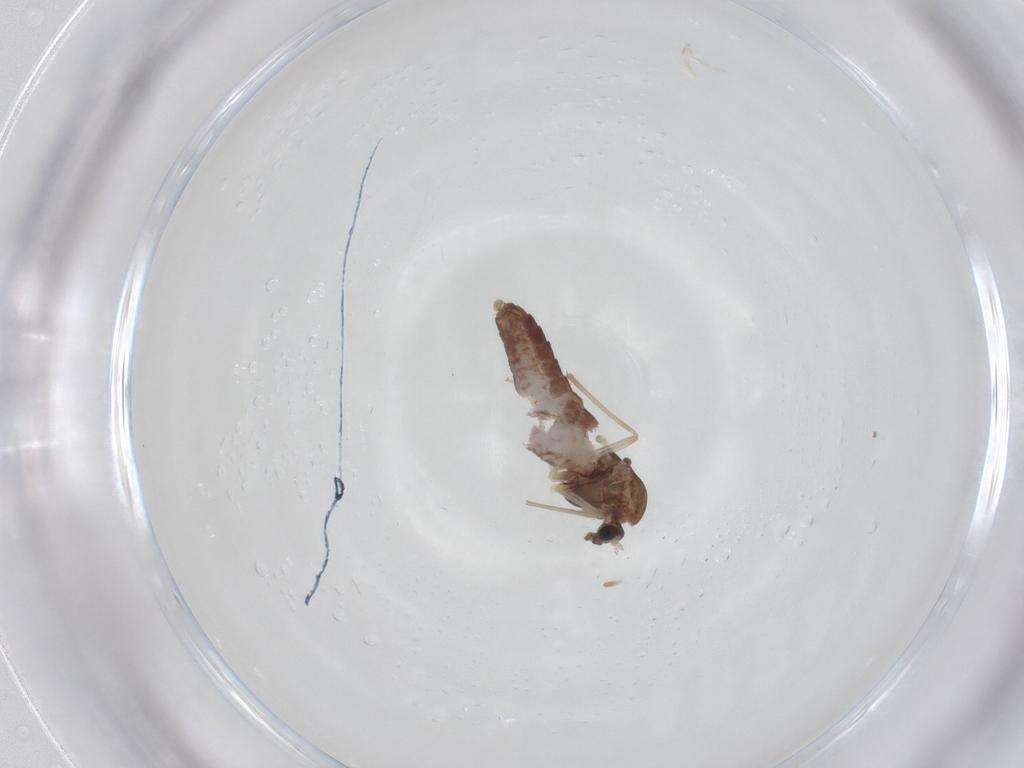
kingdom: Animalia
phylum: Arthropoda
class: Insecta
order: Diptera
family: Chironomidae
